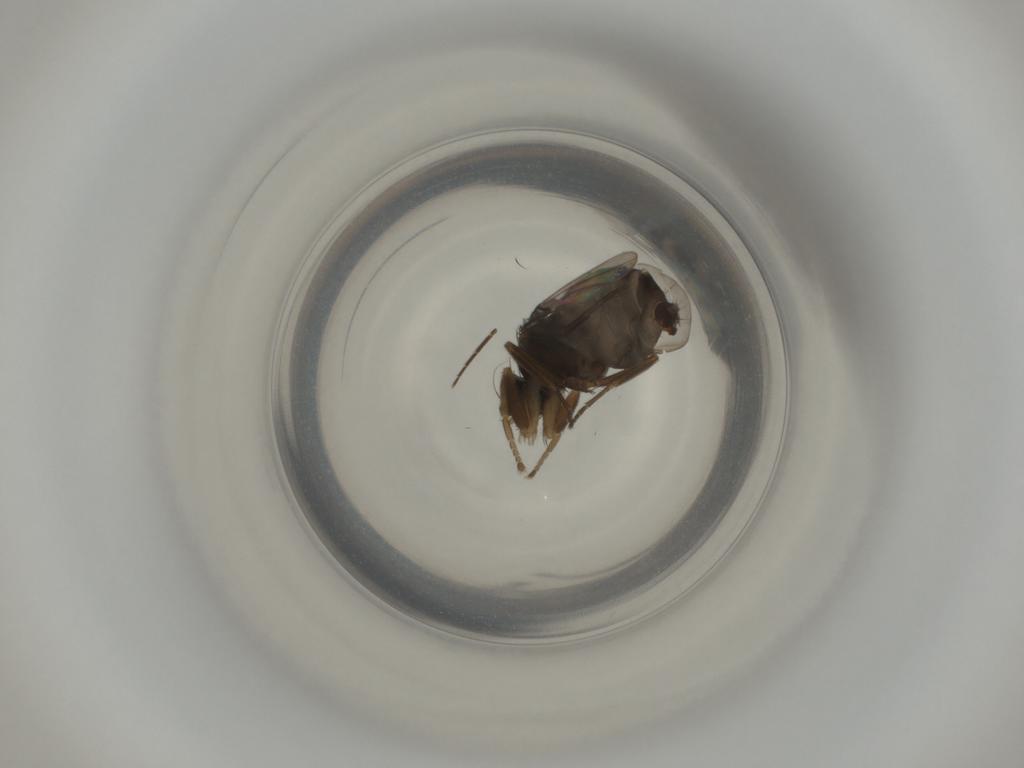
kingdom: Animalia
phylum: Arthropoda
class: Insecta
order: Diptera
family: Phoridae
